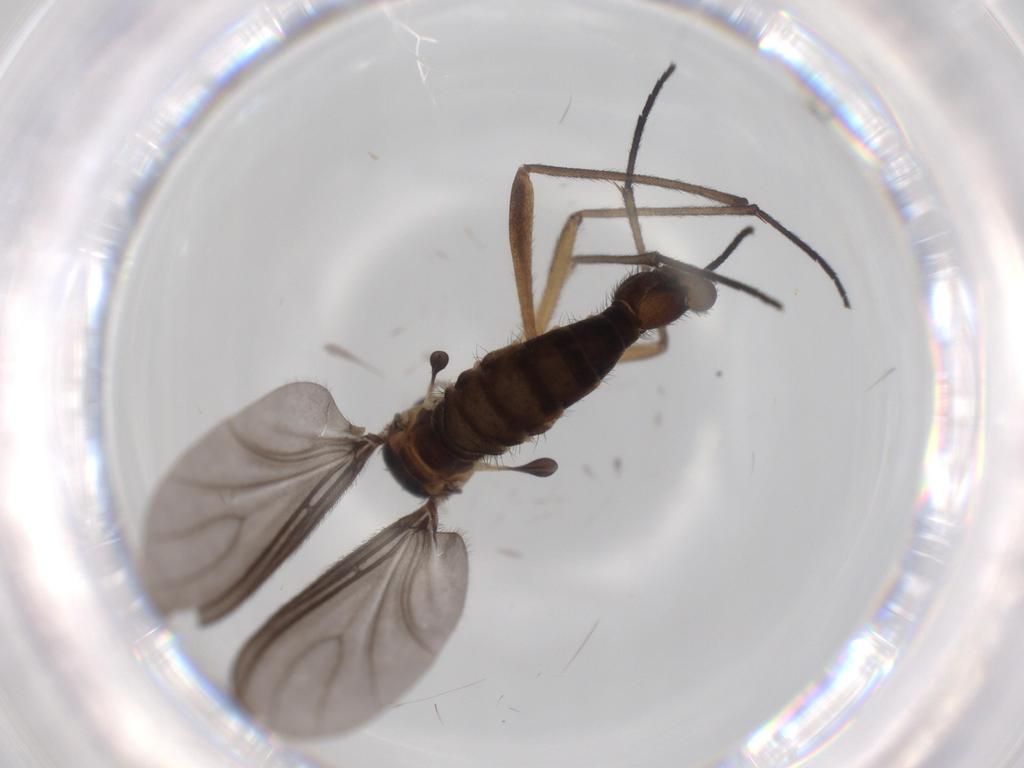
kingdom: Animalia
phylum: Arthropoda
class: Insecta
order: Diptera
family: Sciaridae
